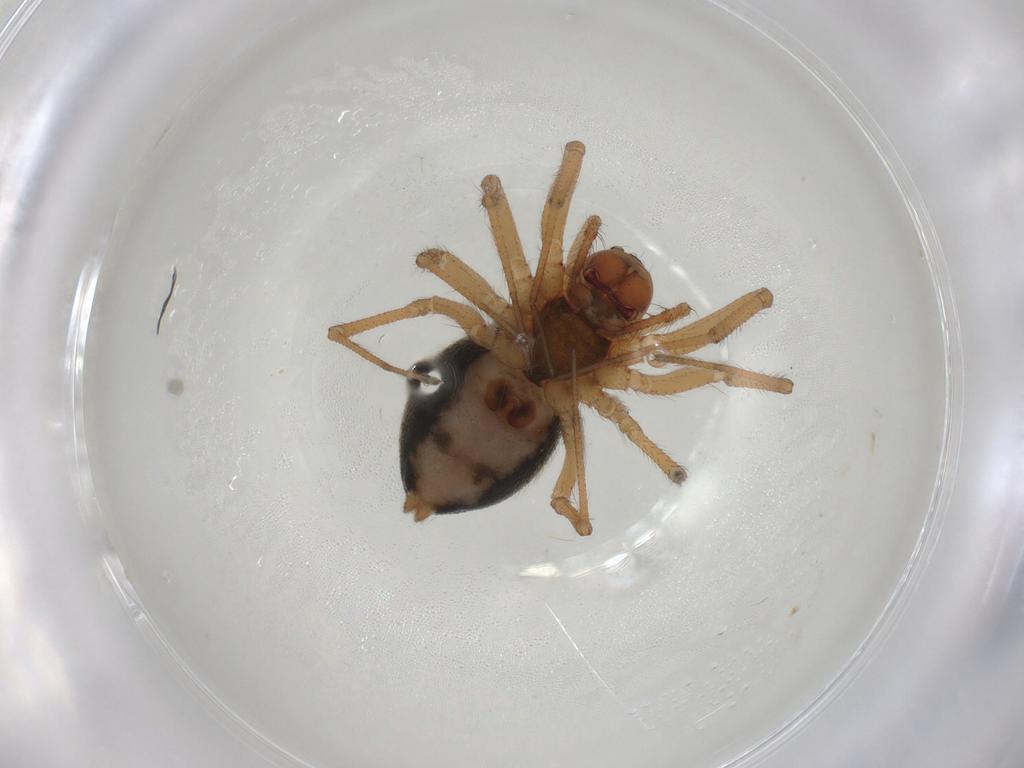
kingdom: Animalia
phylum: Arthropoda
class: Arachnida
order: Araneae
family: Linyphiidae
